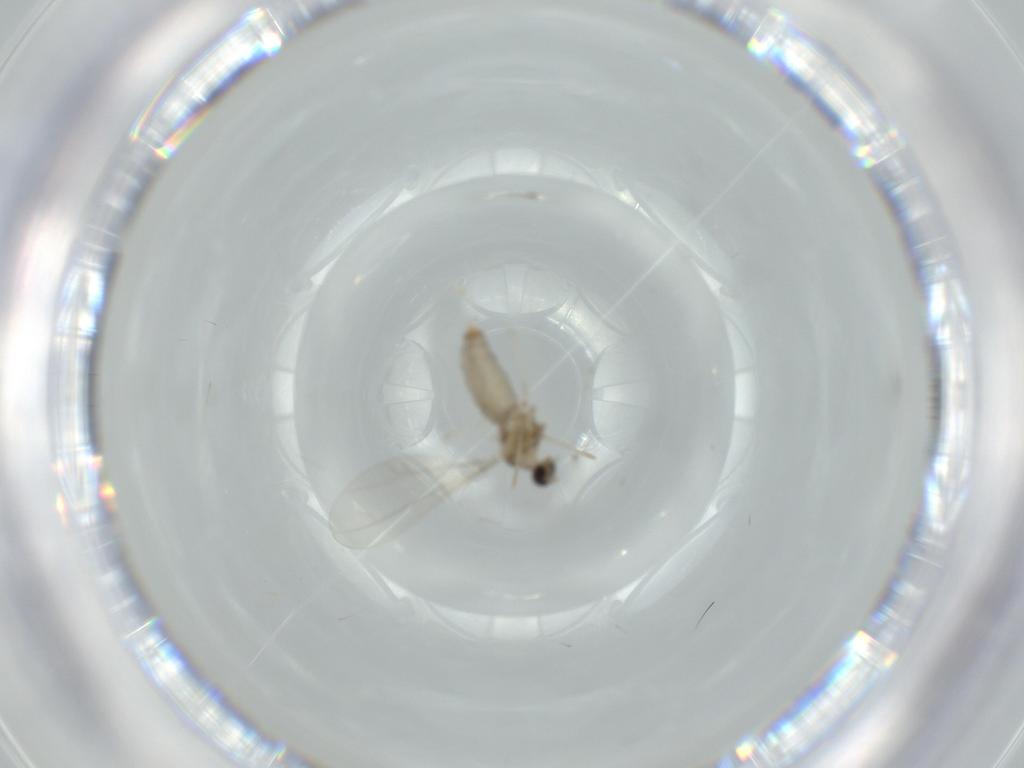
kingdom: Animalia
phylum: Arthropoda
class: Insecta
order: Diptera
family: Cecidomyiidae
